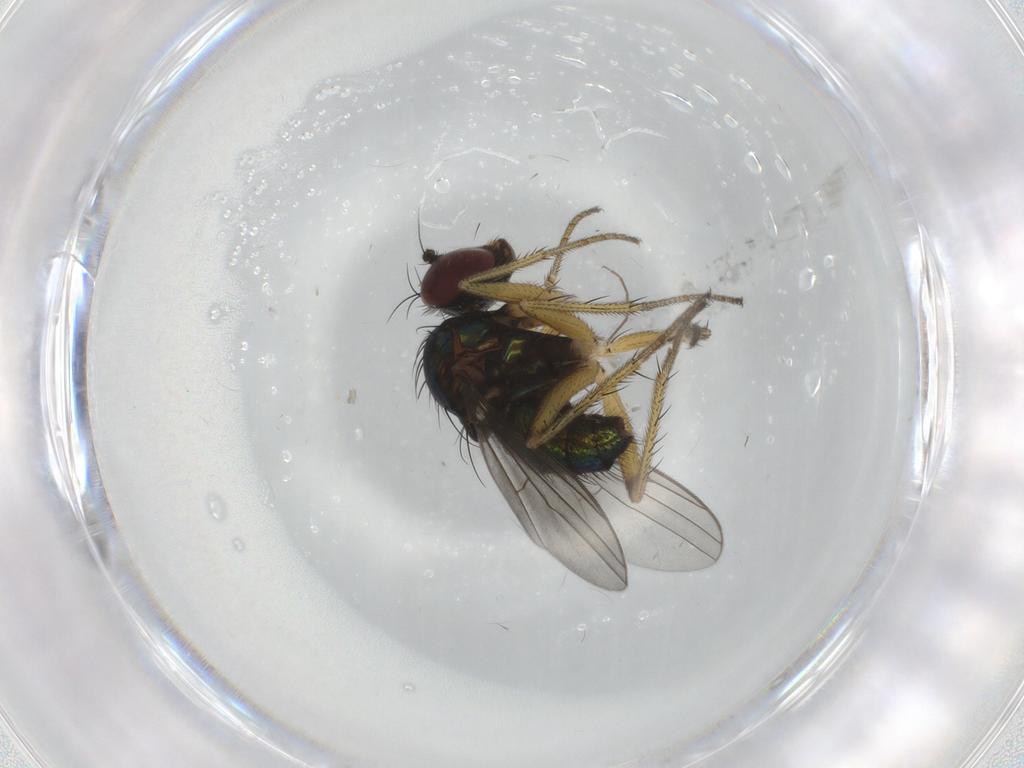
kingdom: Animalia
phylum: Arthropoda
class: Insecta
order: Diptera
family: Dolichopodidae
